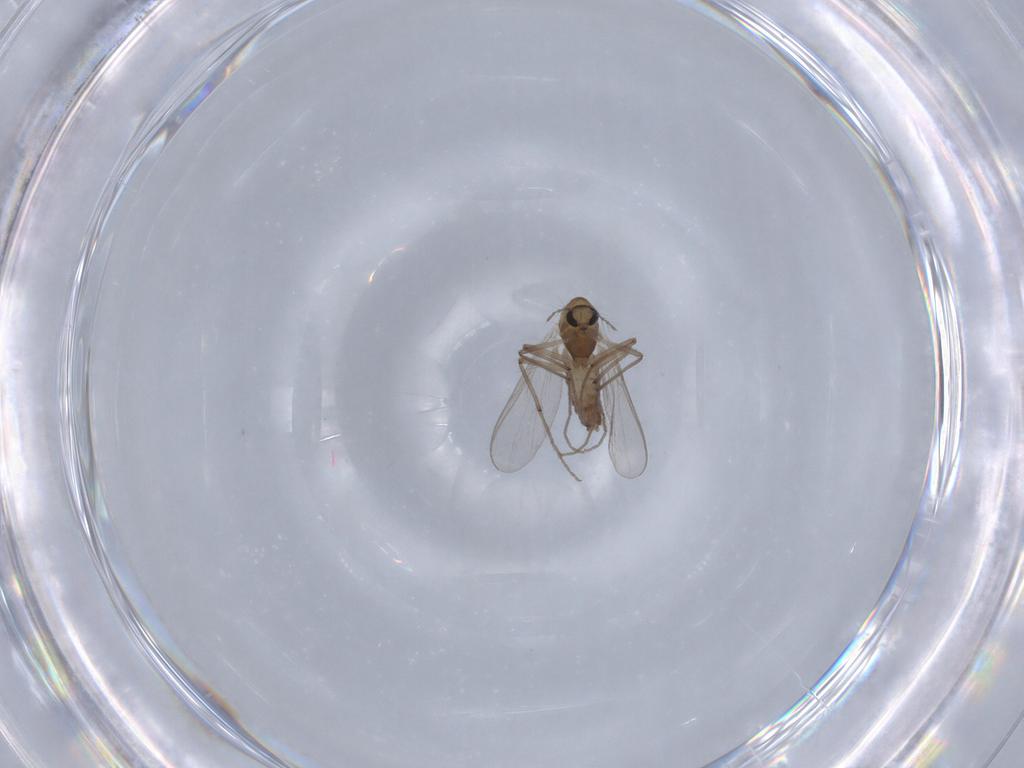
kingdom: Animalia
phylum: Arthropoda
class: Insecta
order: Diptera
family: Chironomidae
